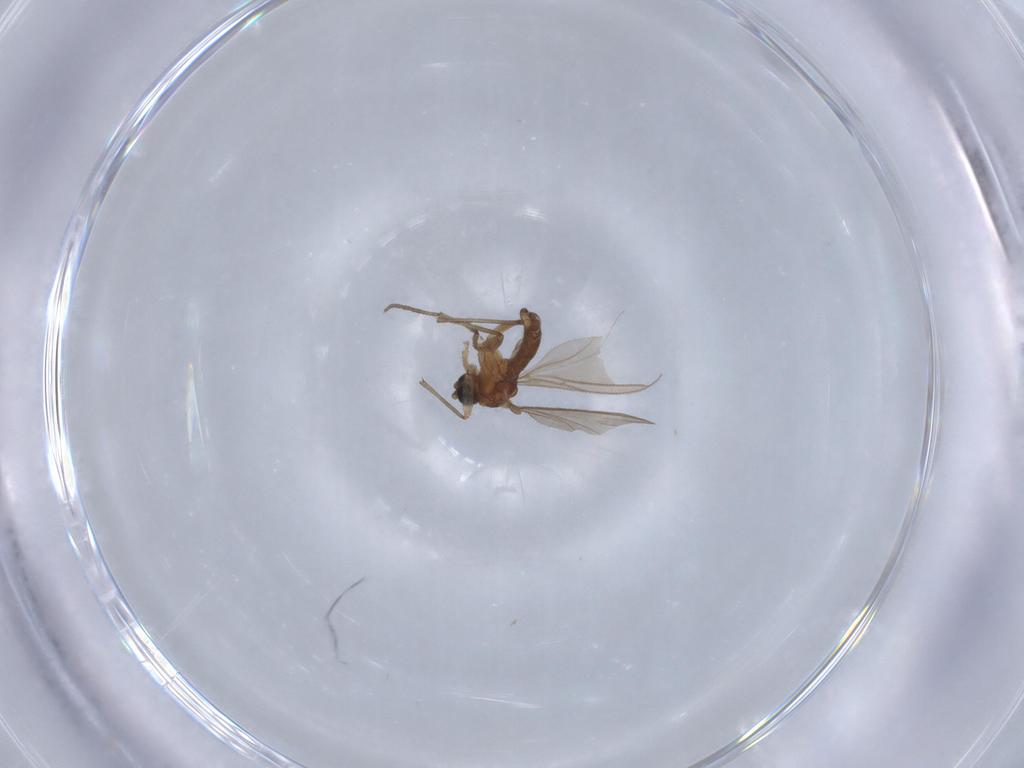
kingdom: Animalia
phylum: Arthropoda
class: Insecta
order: Diptera
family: Sciaridae
